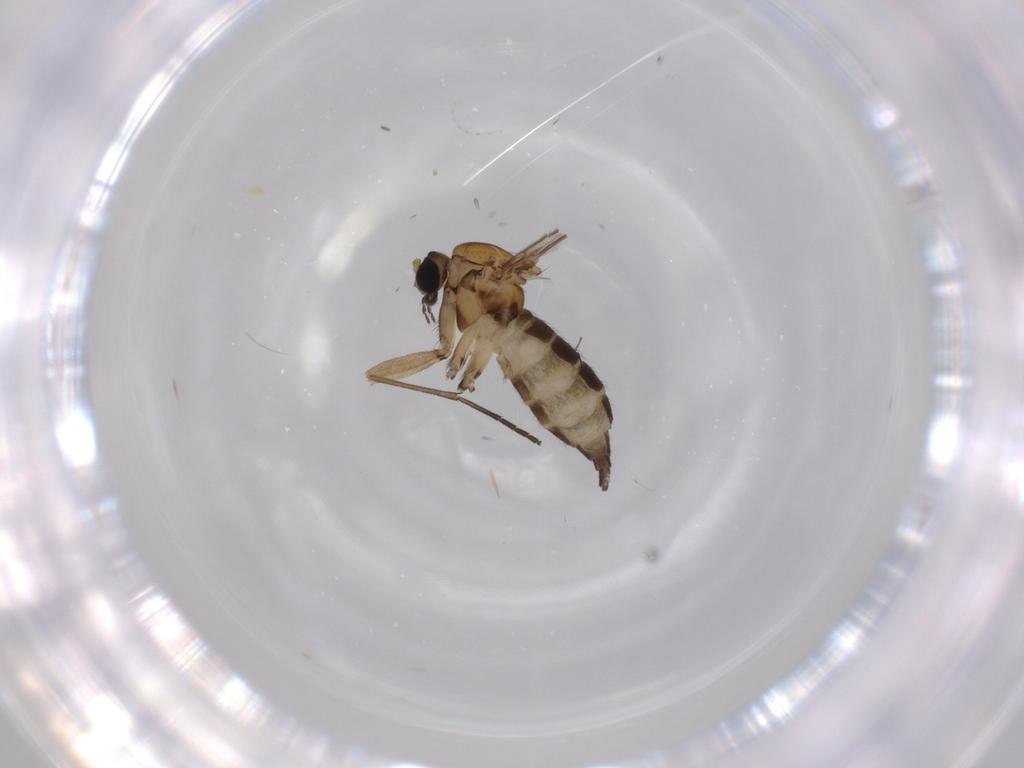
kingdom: Animalia
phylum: Arthropoda
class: Insecta
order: Diptera
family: Sciaridae
